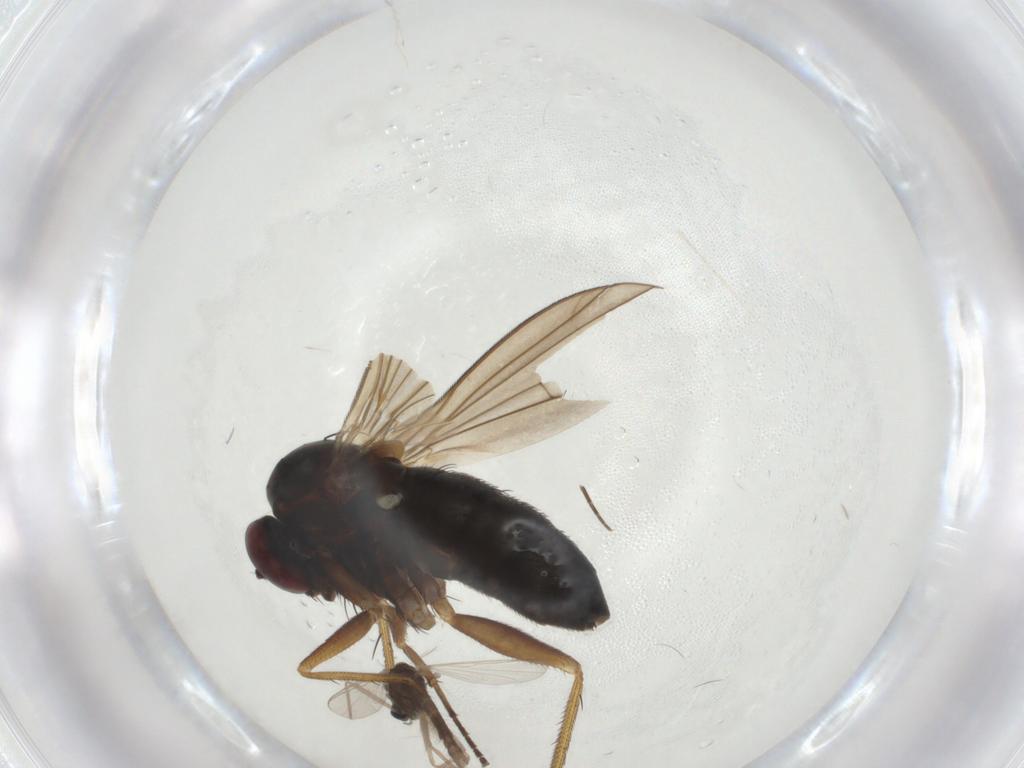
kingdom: Animalia
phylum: Arthropoda
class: Insecta
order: Diptera
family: Chironomidae
